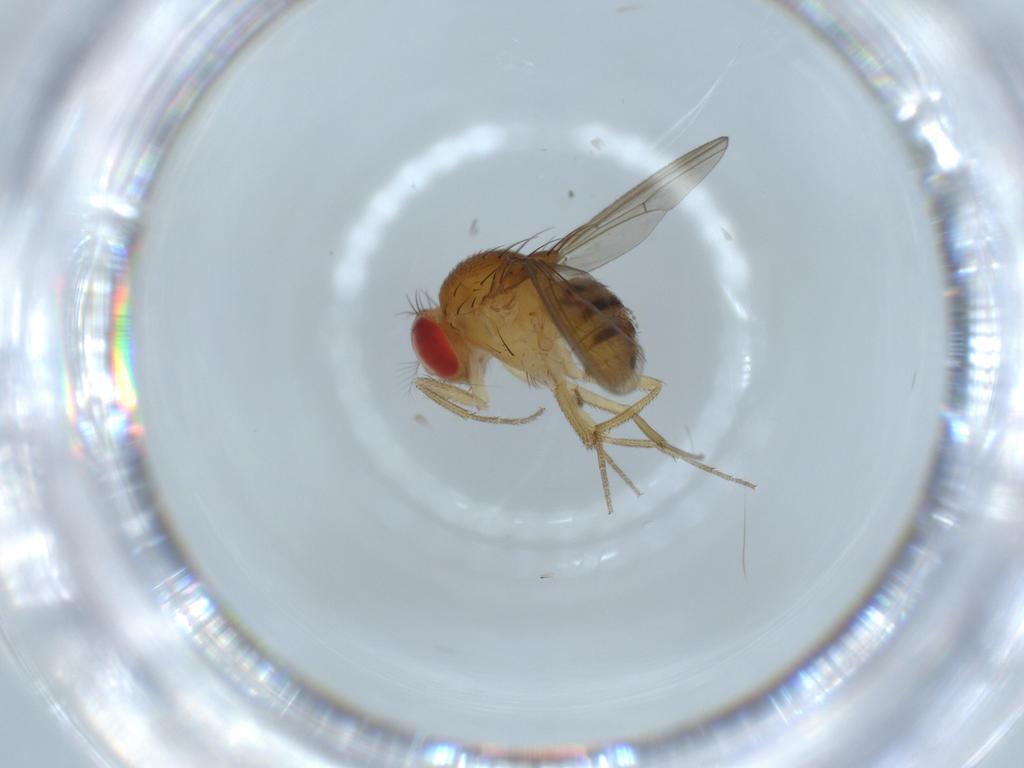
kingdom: Animalia
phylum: Arthropoda
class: Insecta
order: Diptera
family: Drosophilidae
